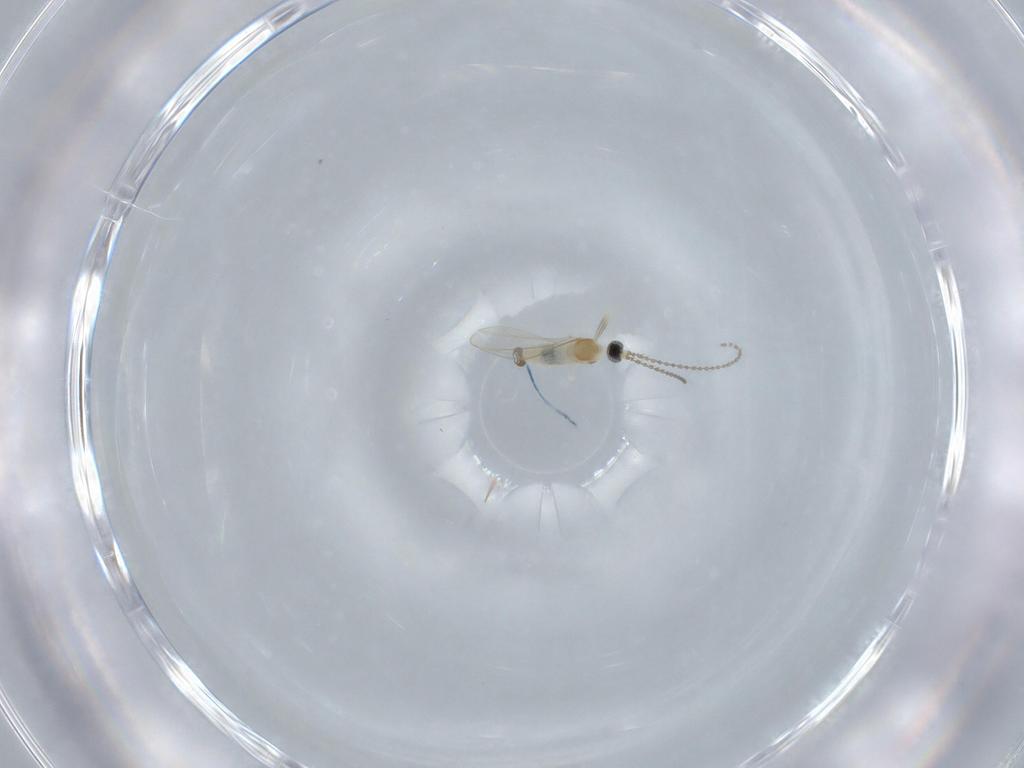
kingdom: Animalia
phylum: Arthropoda
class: Insecta
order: Diptera
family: Cecidomyiidae
